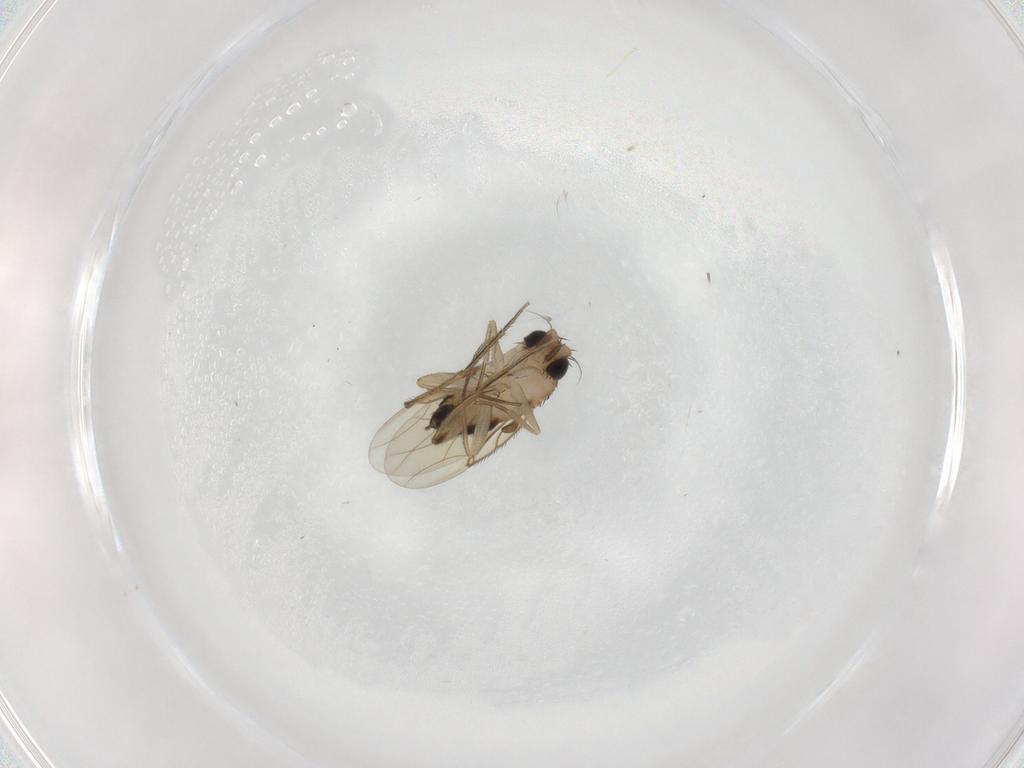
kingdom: Animalia
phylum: Arthropoda
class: Insecta
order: Diptera
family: Phoridae
